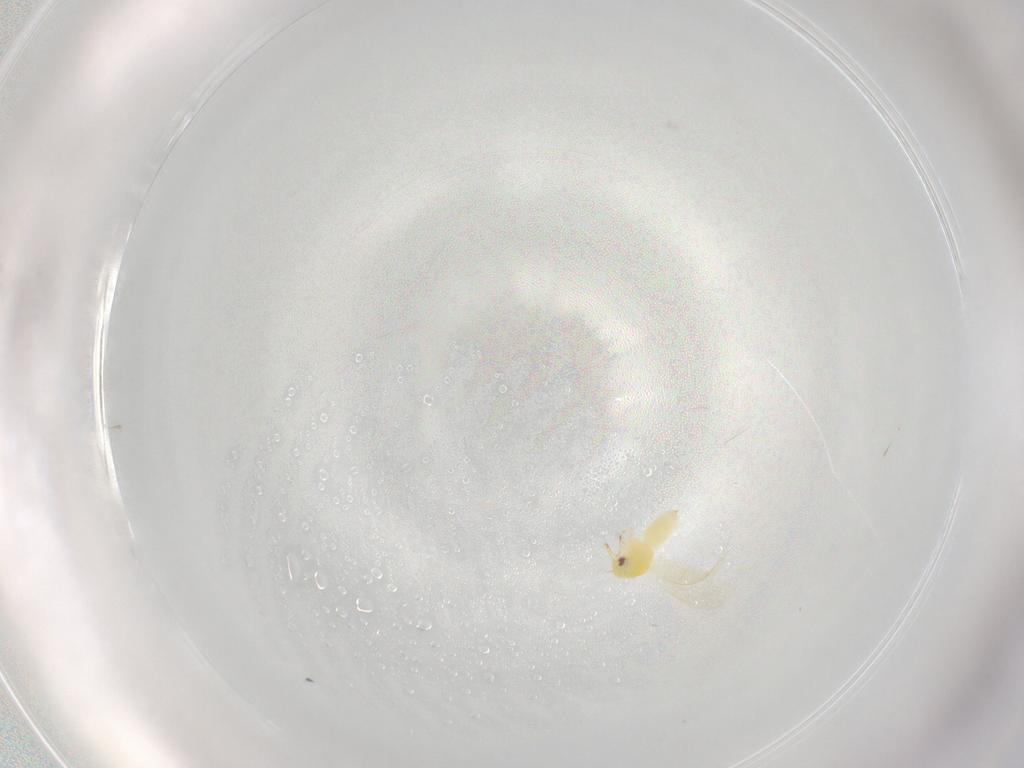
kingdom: Animalia
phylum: Arthropoda
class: Insecta
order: Hemiptera
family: Aleyrodidae
